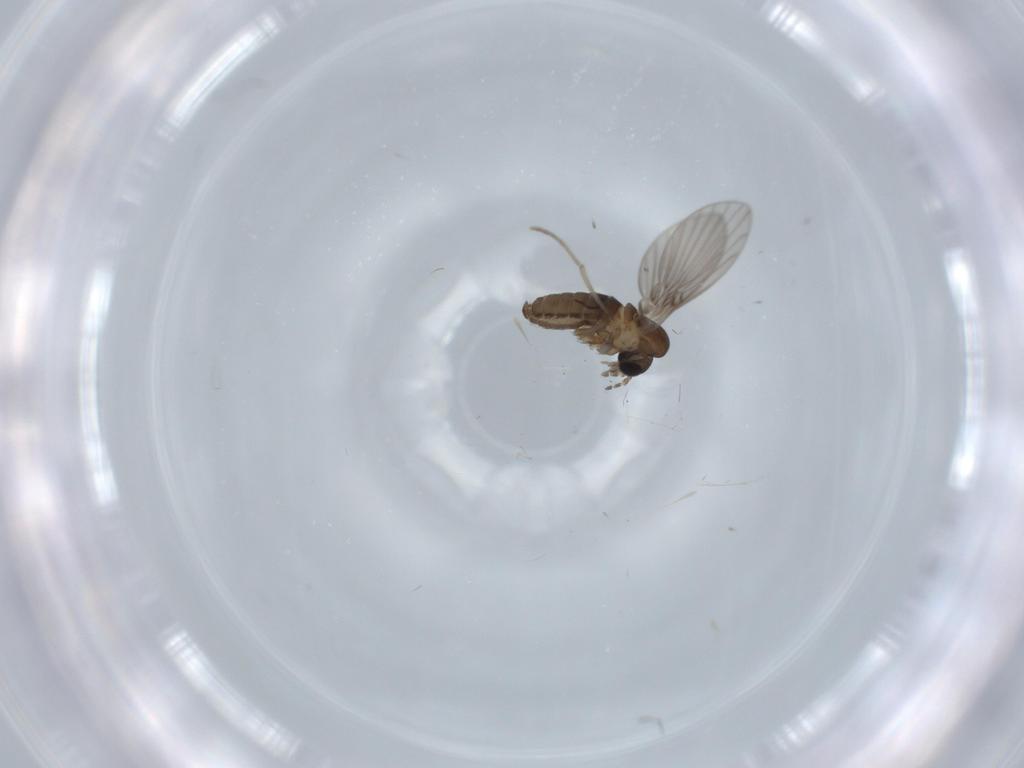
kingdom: Animalia
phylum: Arthropoda
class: Insecta
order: Diptera
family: Psychodidae
